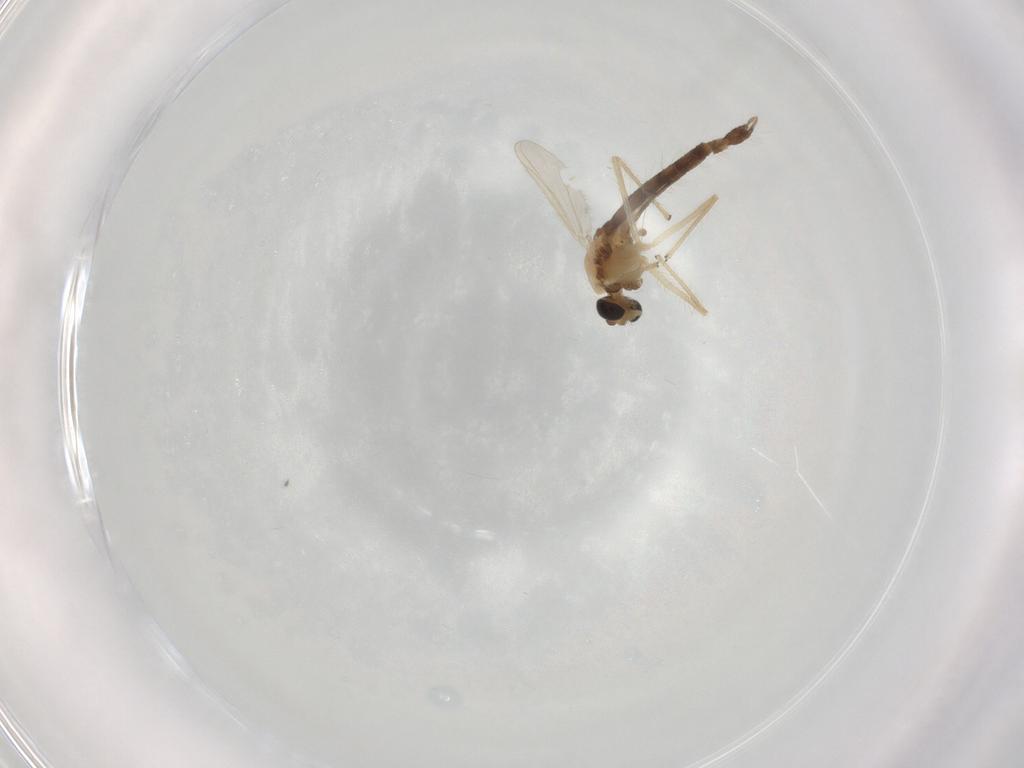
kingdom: Animalia
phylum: Arthropoda
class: Insecta
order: Diptera
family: Chironomidae
